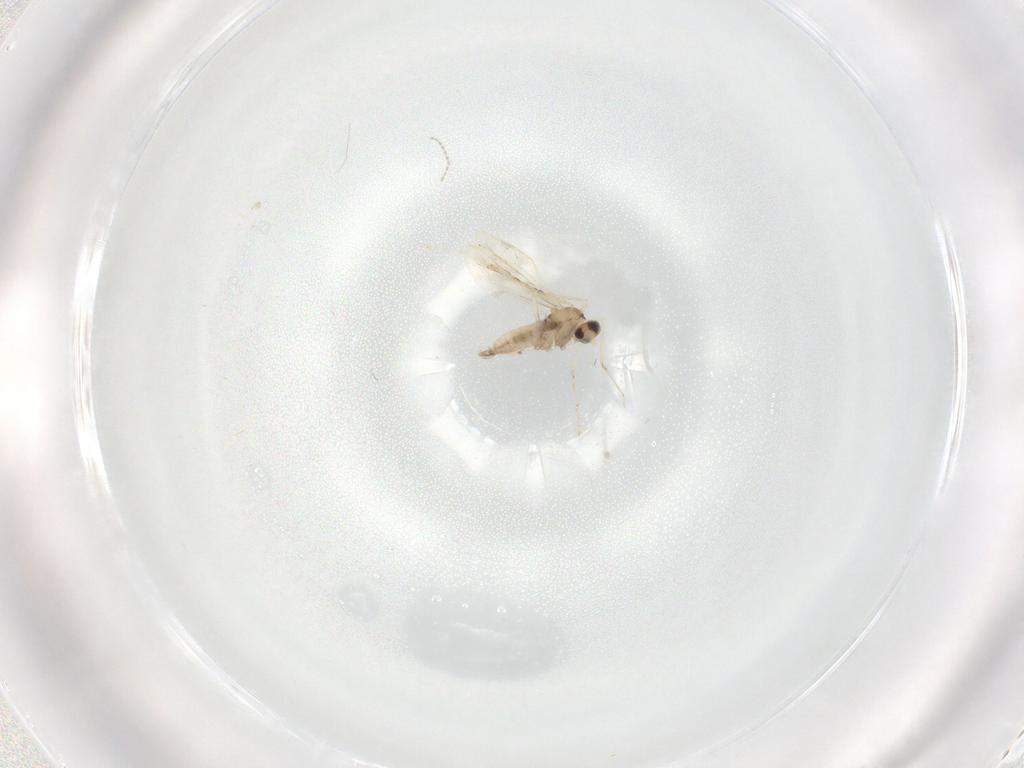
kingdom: Animalia
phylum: Arthropoda
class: Insecta
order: Diptera
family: Cecidomyiidae
